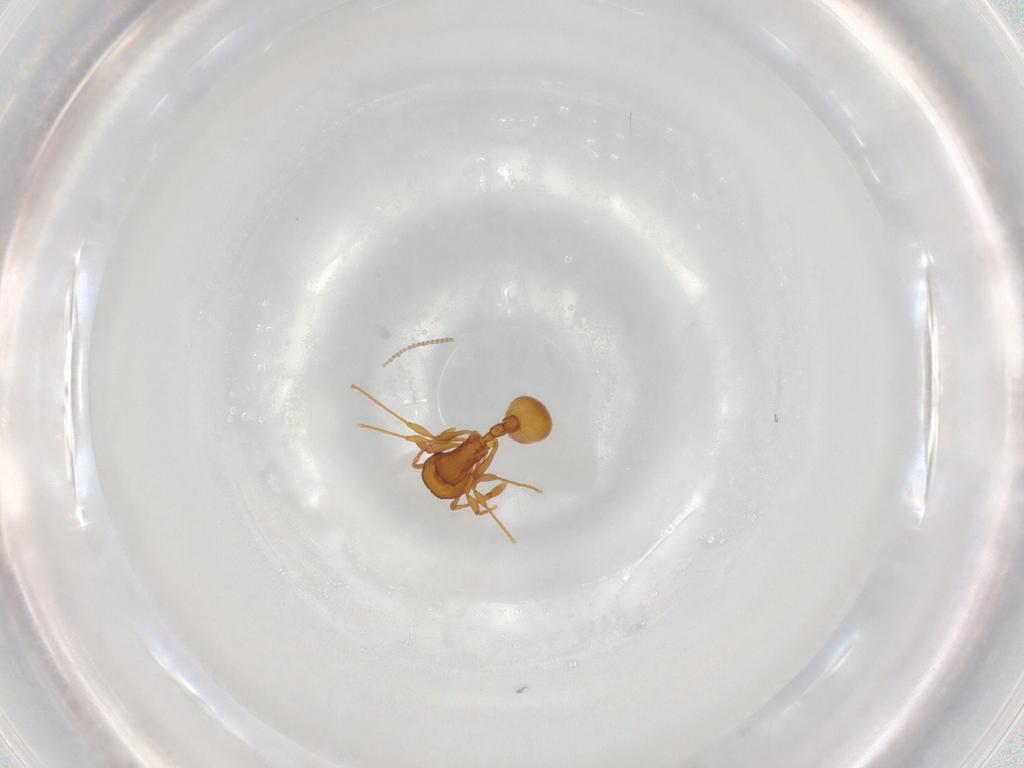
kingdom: Animalia
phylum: Arthropoda
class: Insecta
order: Hymenoptera
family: Formicidae
